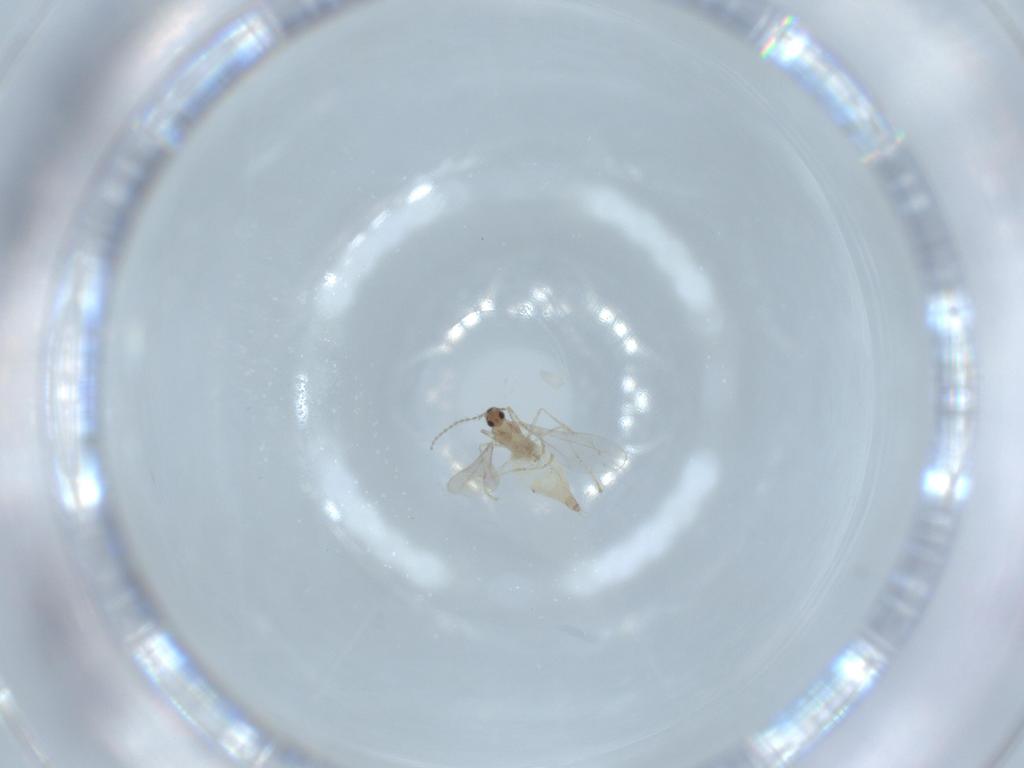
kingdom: Animalia
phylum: Arthropoda
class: Insecta
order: Diptera
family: Cecidomyiidae
